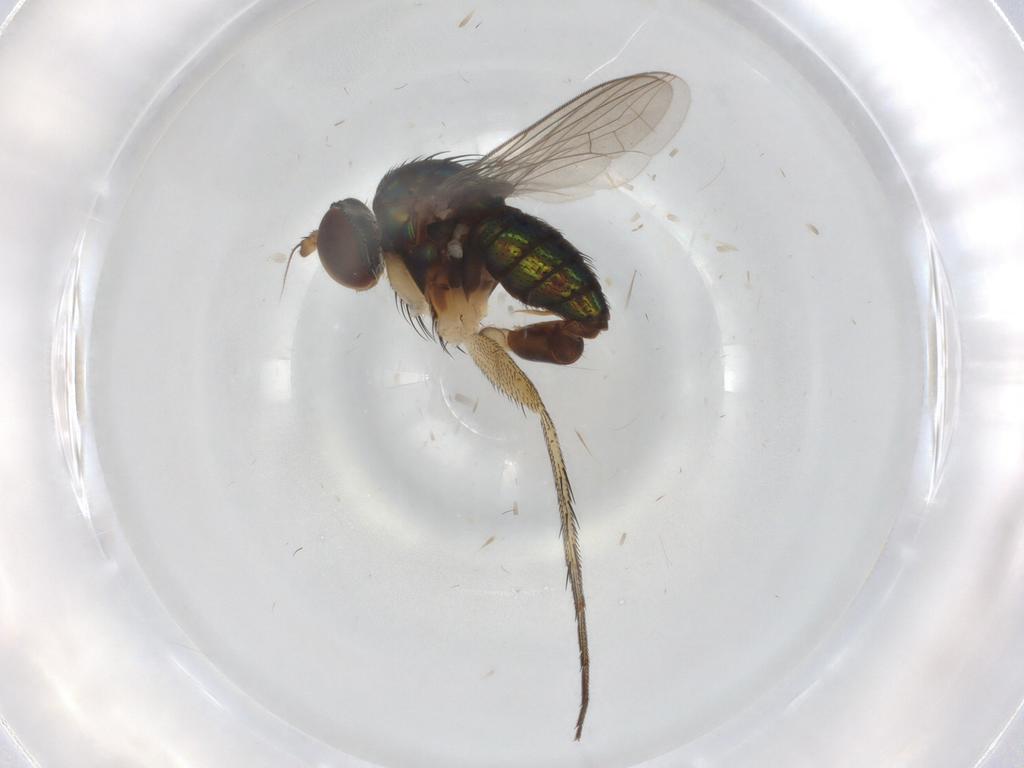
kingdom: Animalia
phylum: Arthropoda
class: Insecta
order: Diptera
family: Dolichopodidae
